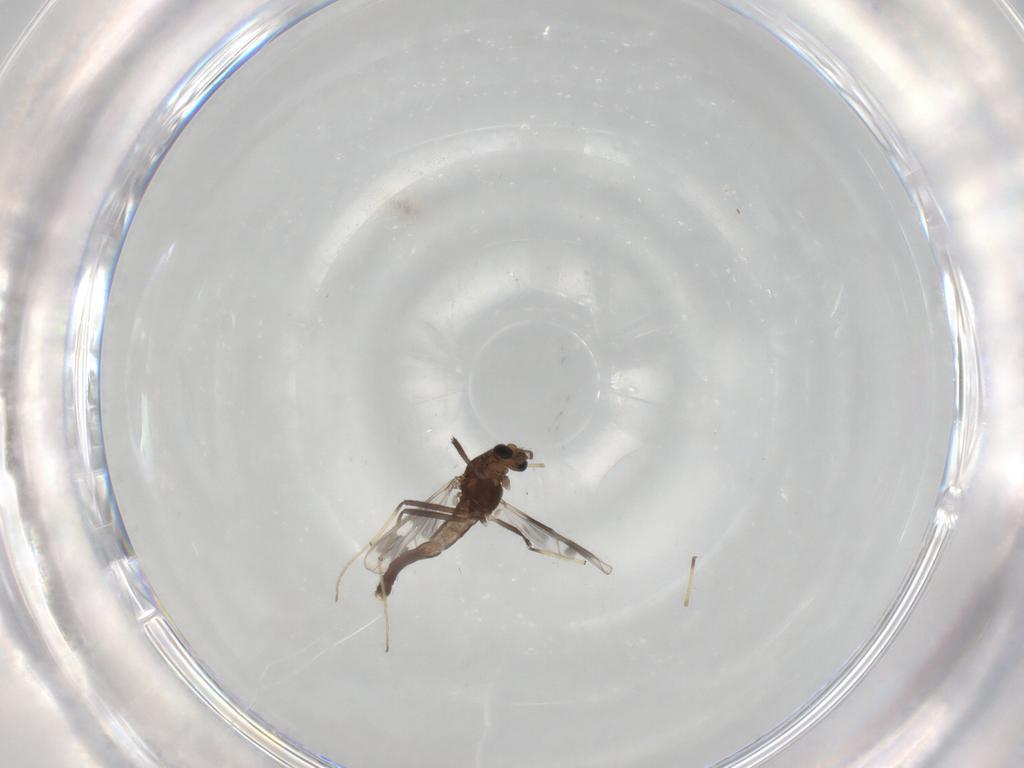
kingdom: Animalia
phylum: Arthropoda
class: Insecta
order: Diptera
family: Chironomidae
